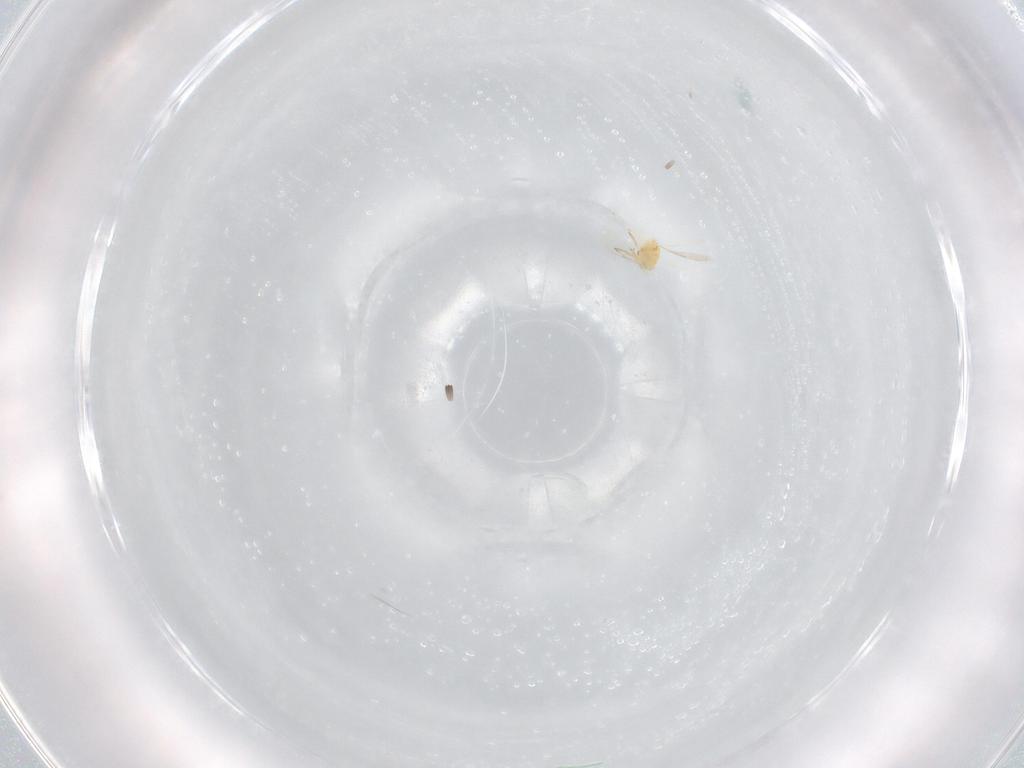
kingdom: Animalia
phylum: Arthropoda
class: Insecta
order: Hymenoptera
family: Aphelinidae
